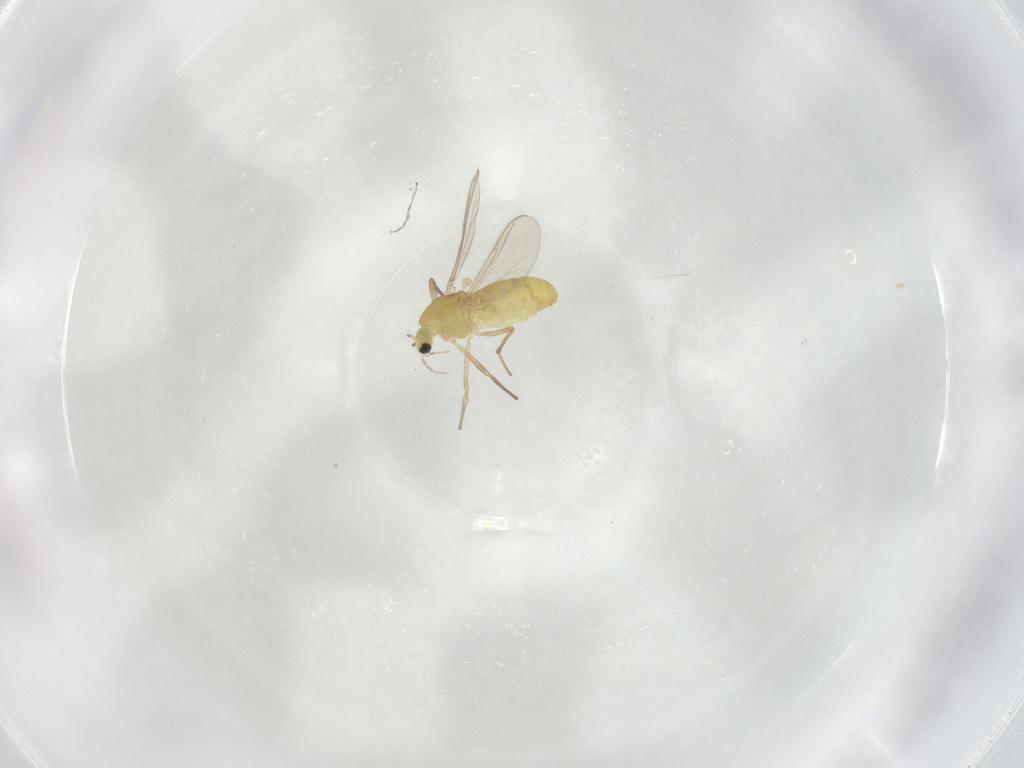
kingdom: Animalia
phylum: Arthropoda
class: Insecta
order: Diptera
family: Chironomidae
